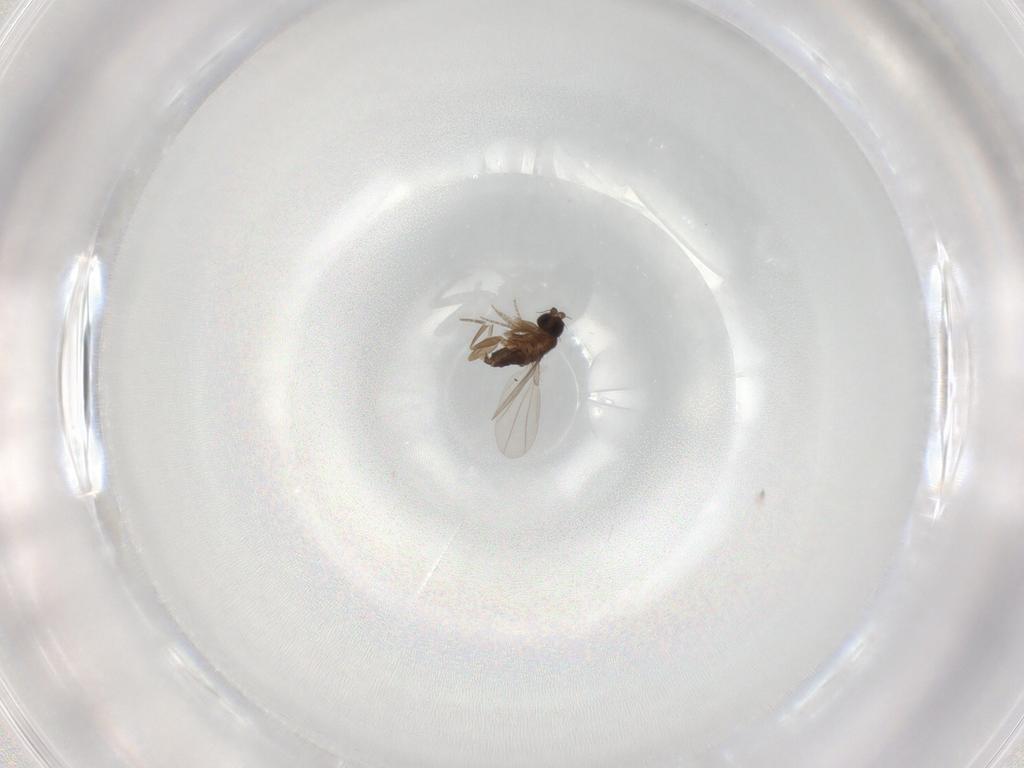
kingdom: Animalia
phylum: Arthropoda
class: Insecta
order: Diptera
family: Phoridae
